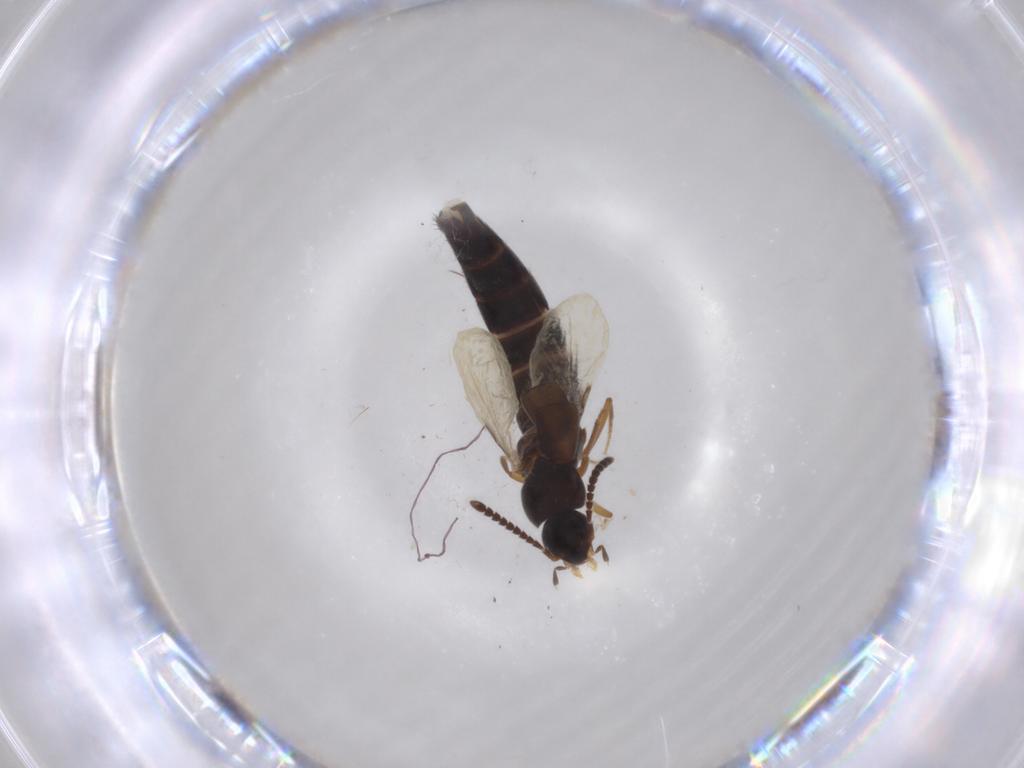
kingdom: Animalia
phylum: Arthropoda
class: Insecta
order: Coleoptera
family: Staphylinidae
